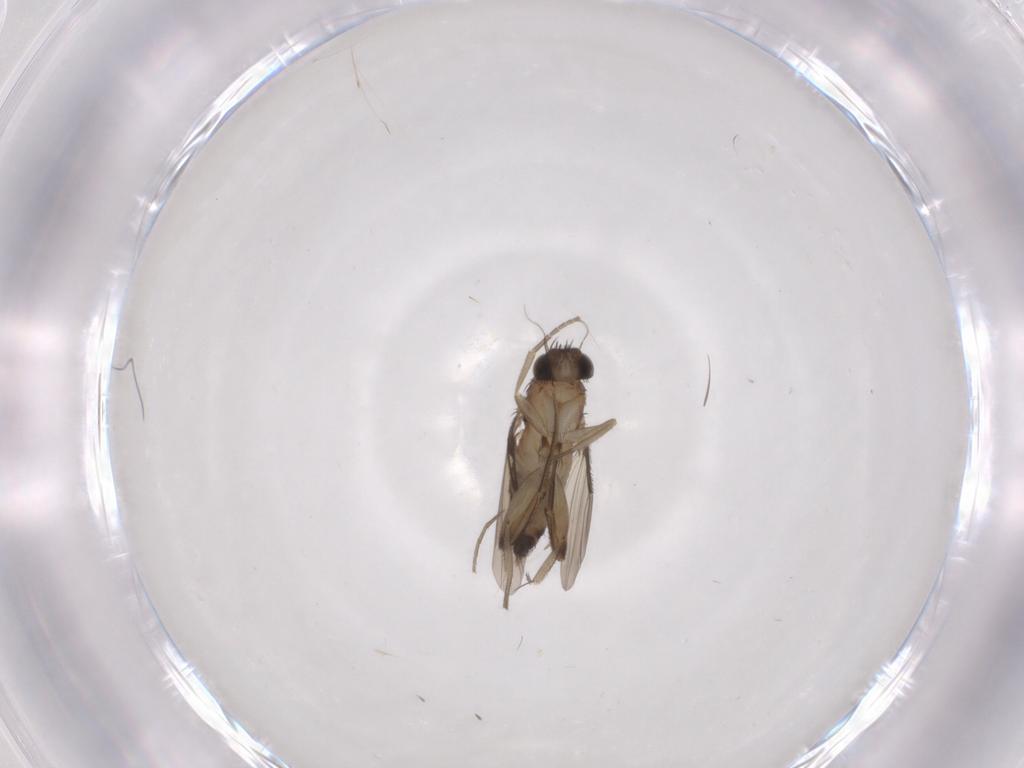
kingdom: Animalia
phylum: Arthropoda
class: Insecta
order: Diptera
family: Phoridae
